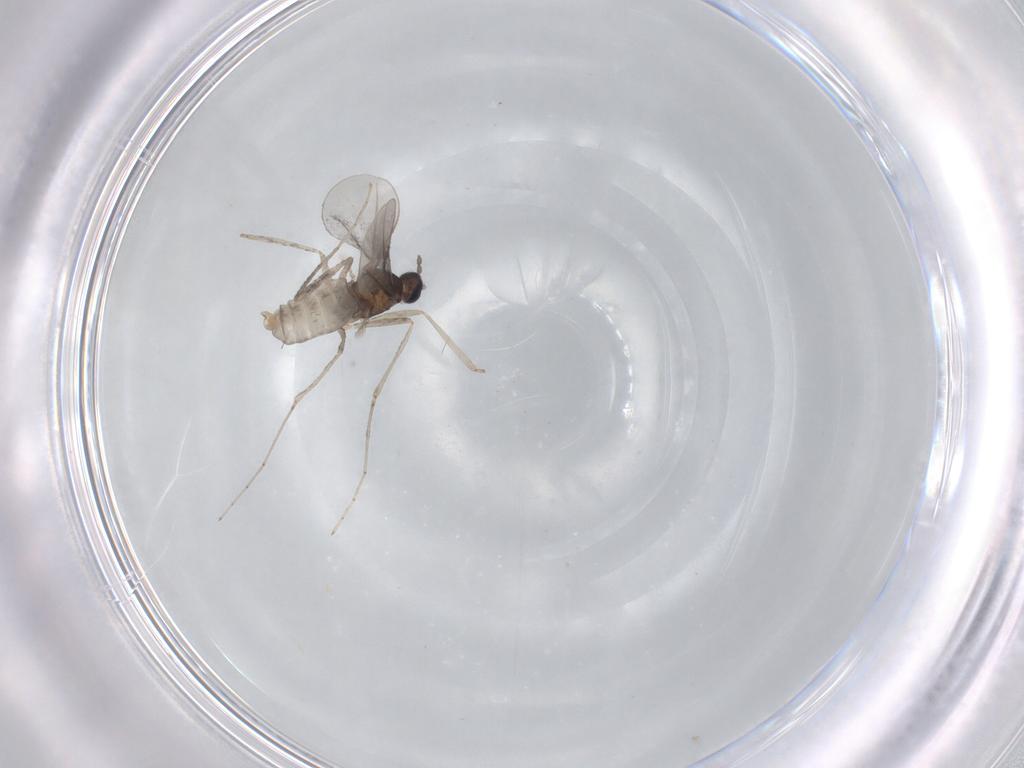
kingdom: Animalia
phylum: Arthropoda
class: Insecta
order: Diptera
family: Cecidomyiidae
